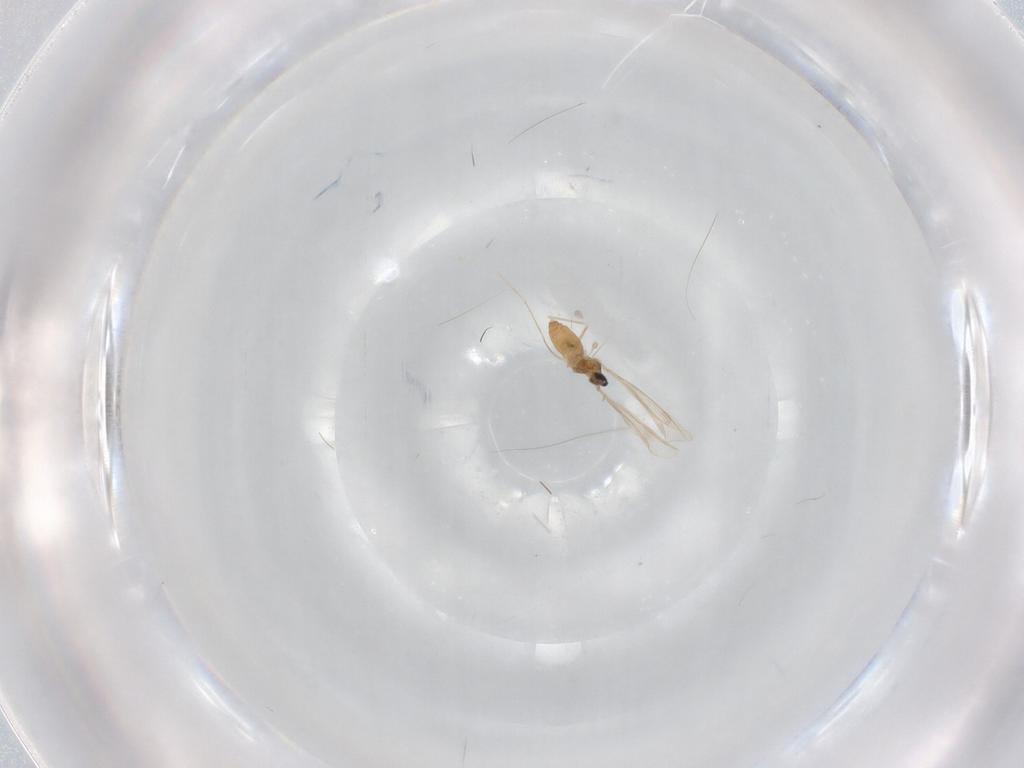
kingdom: Animalia
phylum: Arthropoda
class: Insecta
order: Diptera
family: Cecidomyiidae
